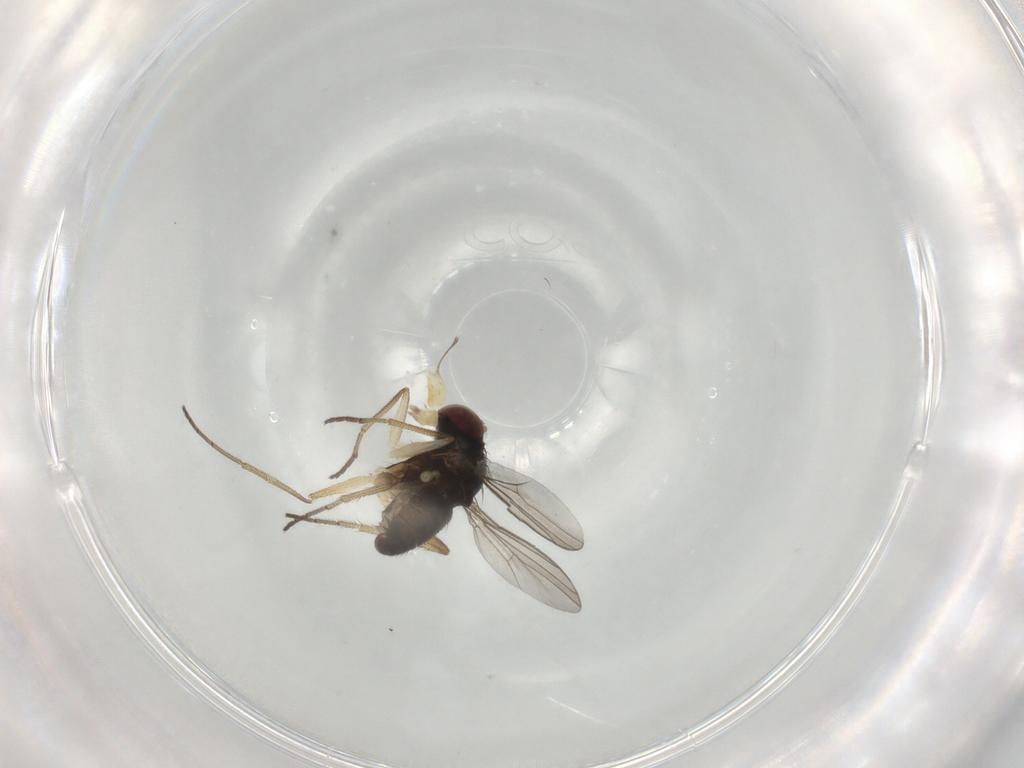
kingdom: Animalia
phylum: Arthropoda
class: Insecta
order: Diptera
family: Dolichopodidae
